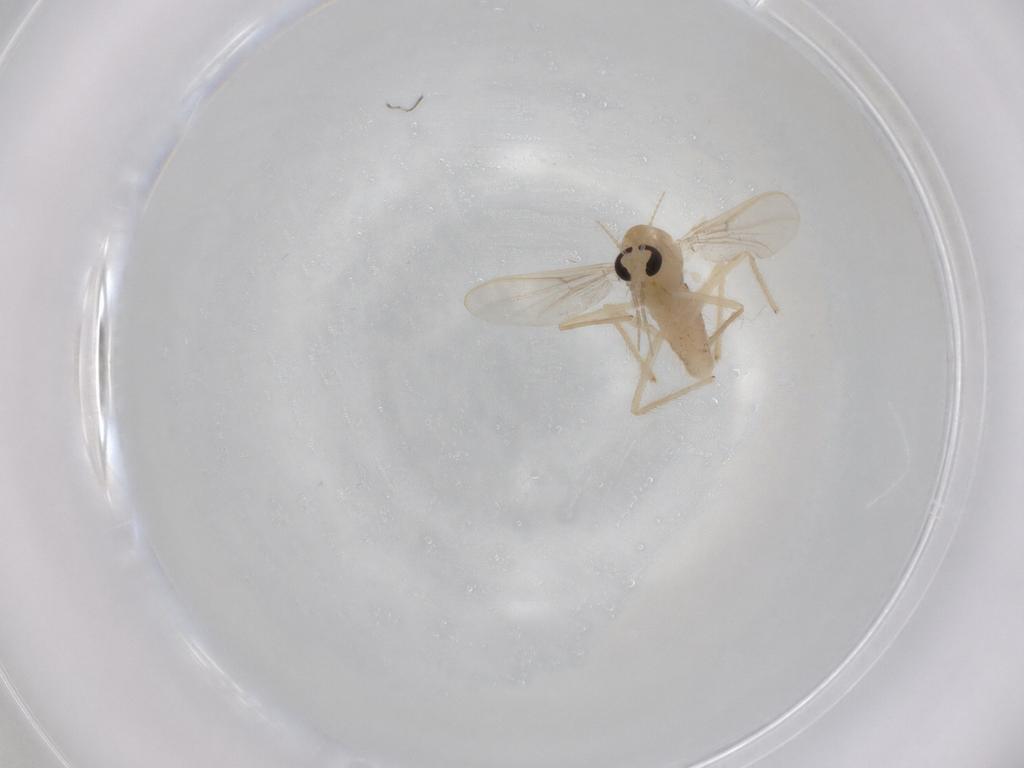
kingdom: Animalia
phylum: Arthropoda
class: Insecta
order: Diptera
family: Chironomidae
